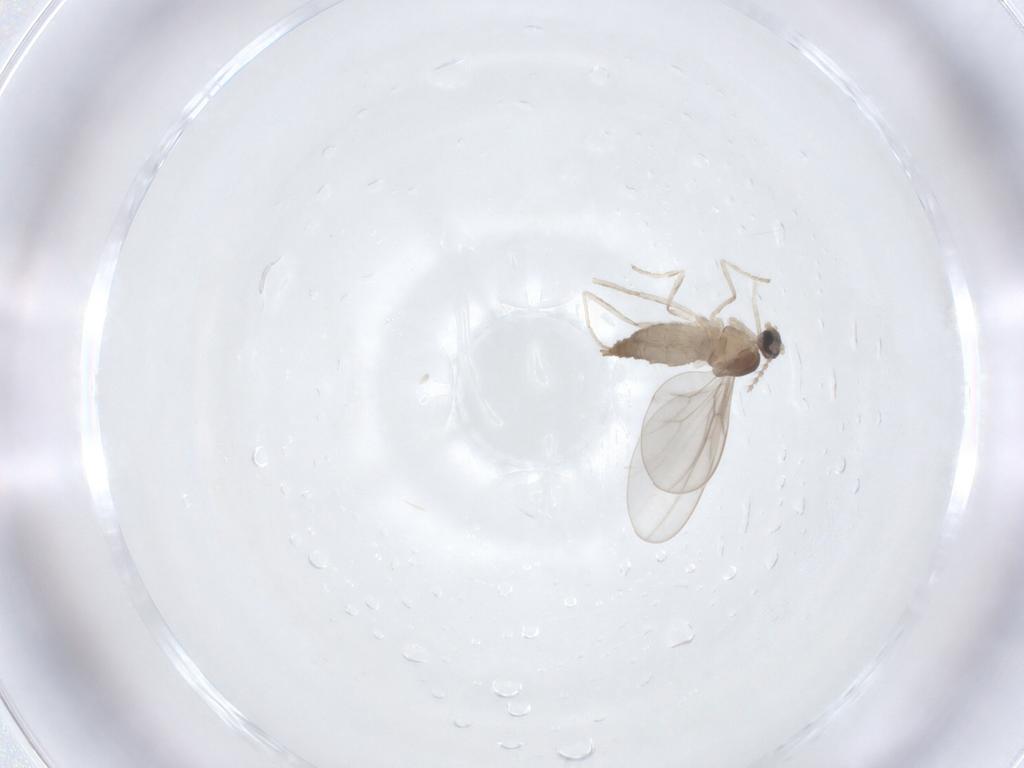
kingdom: Animalia
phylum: Arthropoda
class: Insecta
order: Diptera
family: Cecidomyiidae
